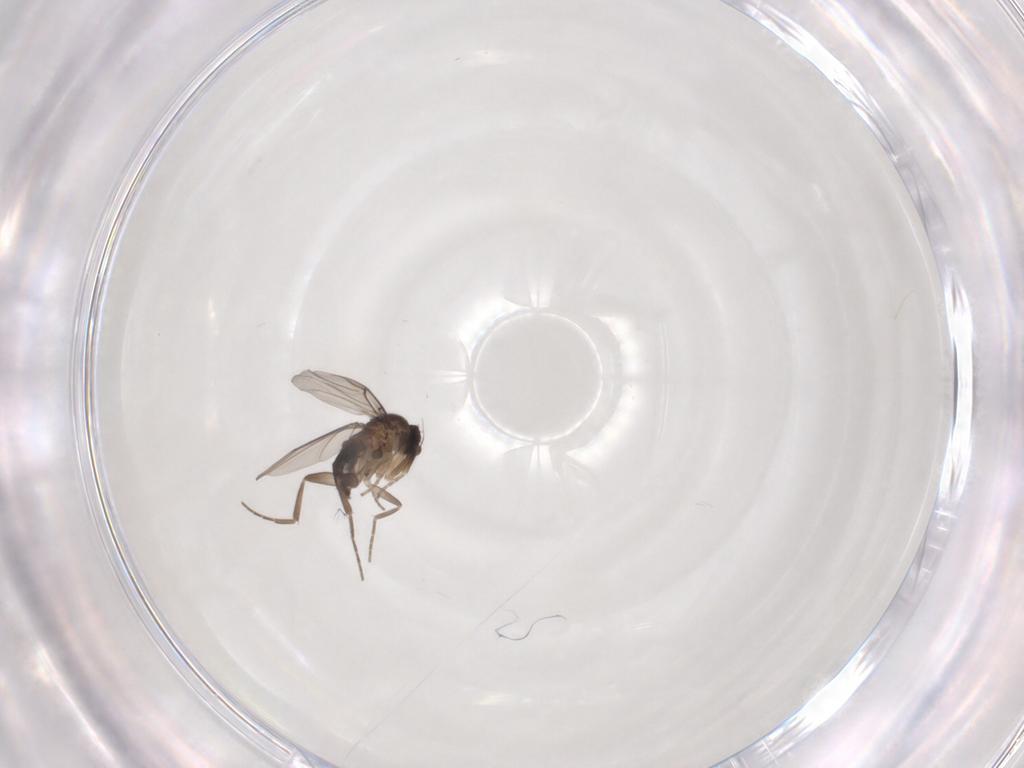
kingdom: Animalia
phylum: Arthropoda
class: Insecta
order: Diptera
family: Phoridae
